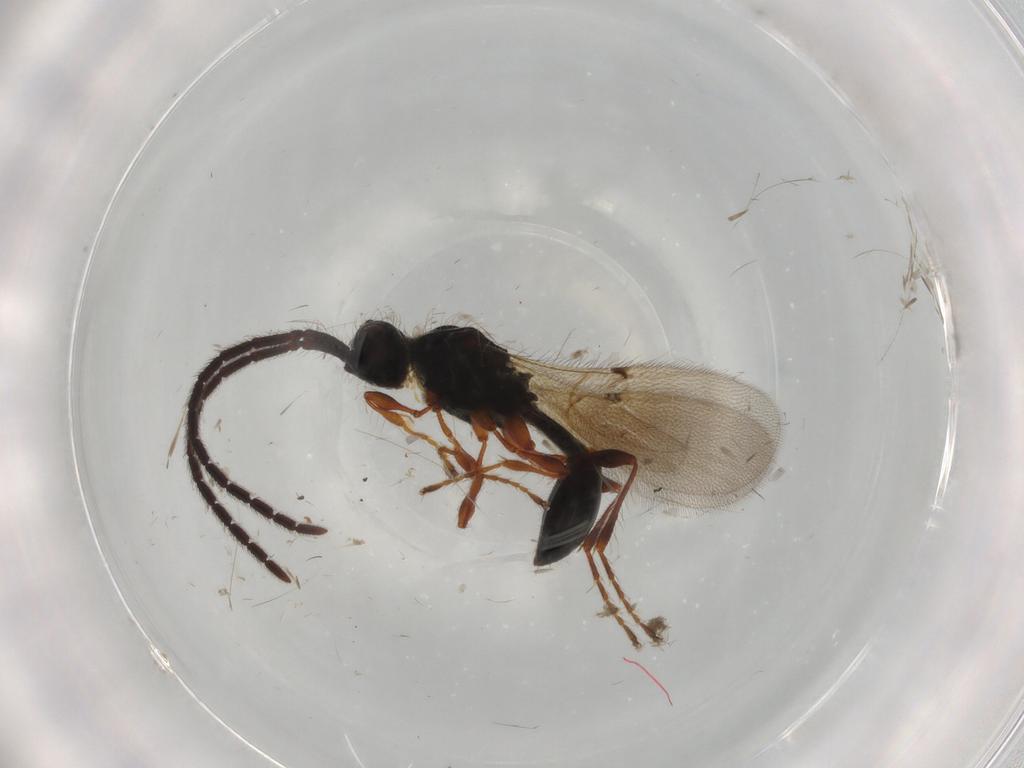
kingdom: Animalia
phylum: Arthropoda
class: Insecta
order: Hymenoptera
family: Diapriidae
